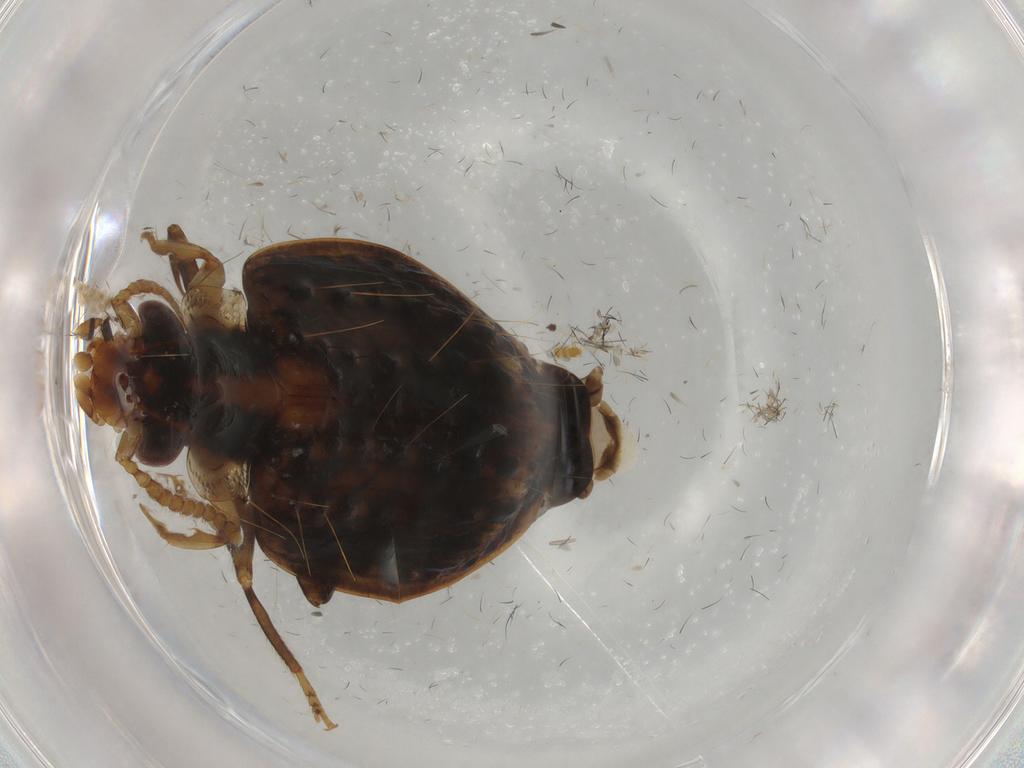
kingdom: Animalia
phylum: Arthropoda
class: Insecta
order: Coleoptera
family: Carabidae
